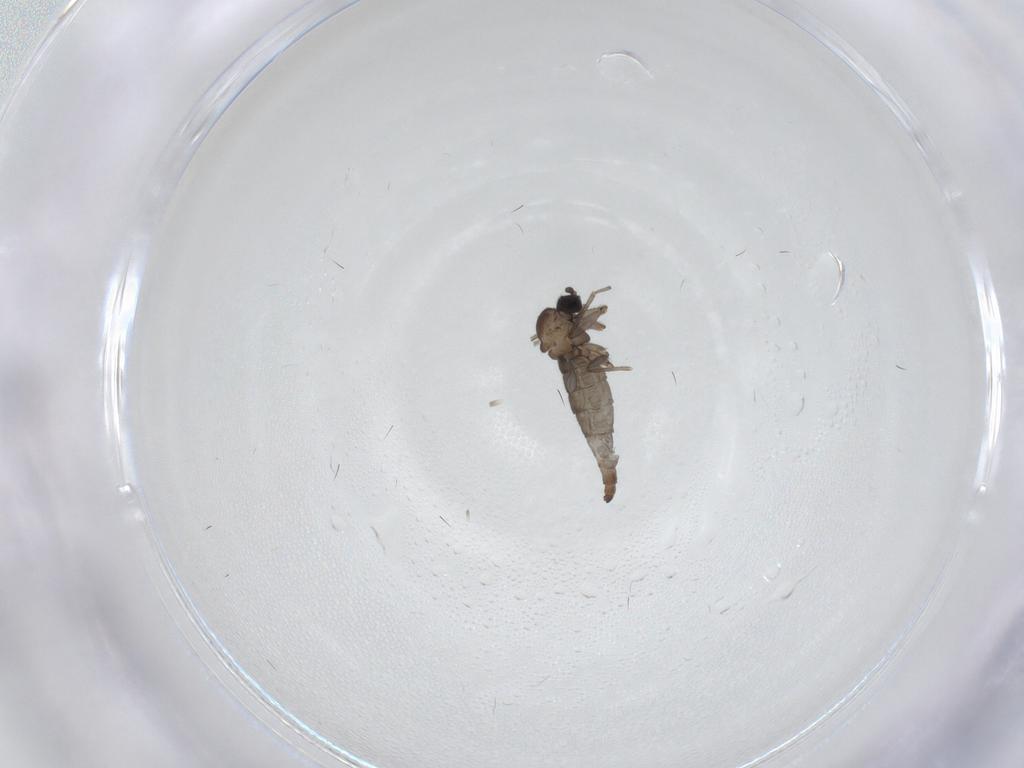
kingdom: Animalia
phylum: Arthropoda
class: Insecta
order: Diptera
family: Sciaridae
